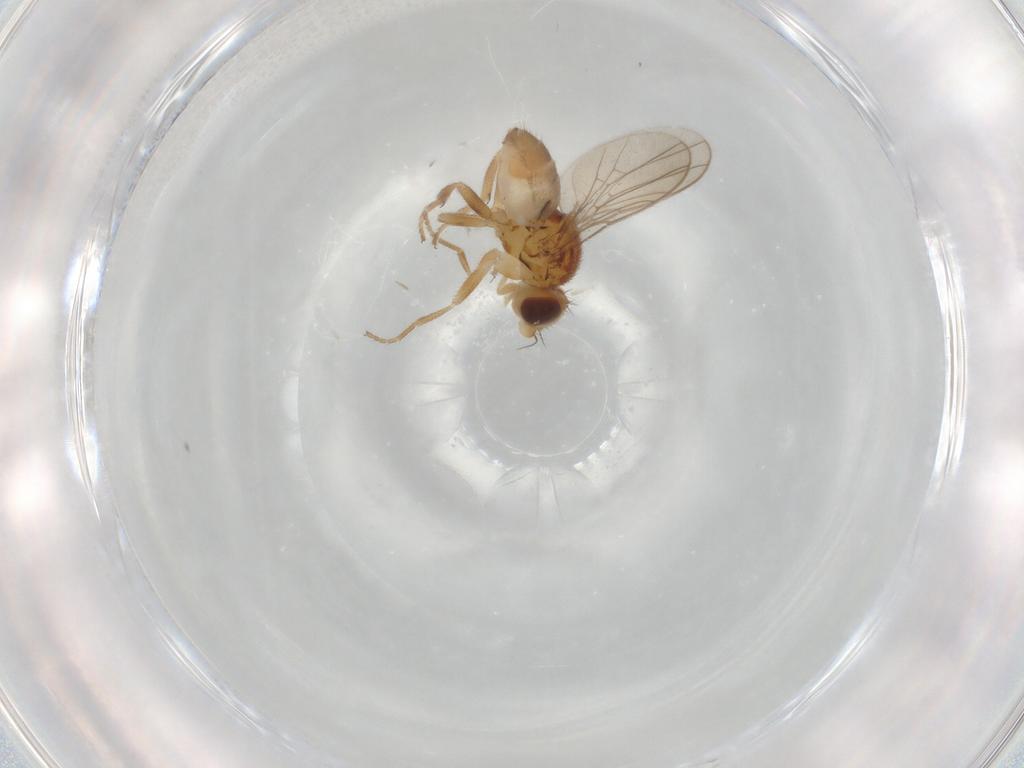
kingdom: Animalia
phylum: Arthropoda
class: Insecta
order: Diptera
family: Chloropidae
